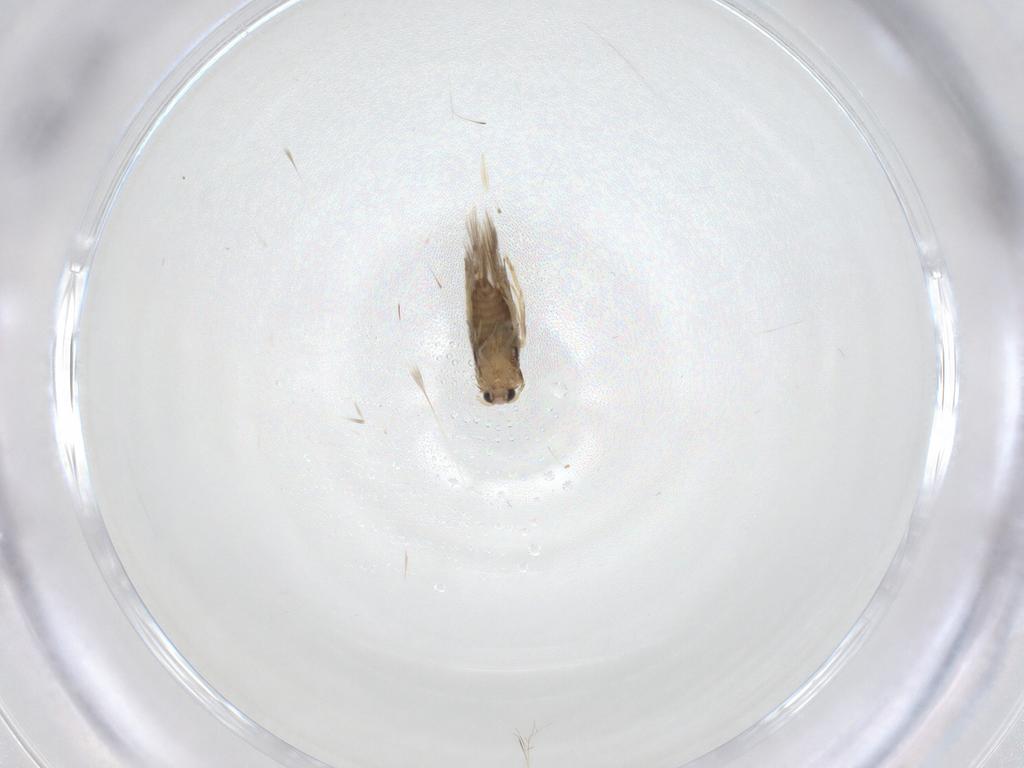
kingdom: Animalia
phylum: Arthropoda
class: Insecta
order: Lepidoptera
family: Nepticulidae
